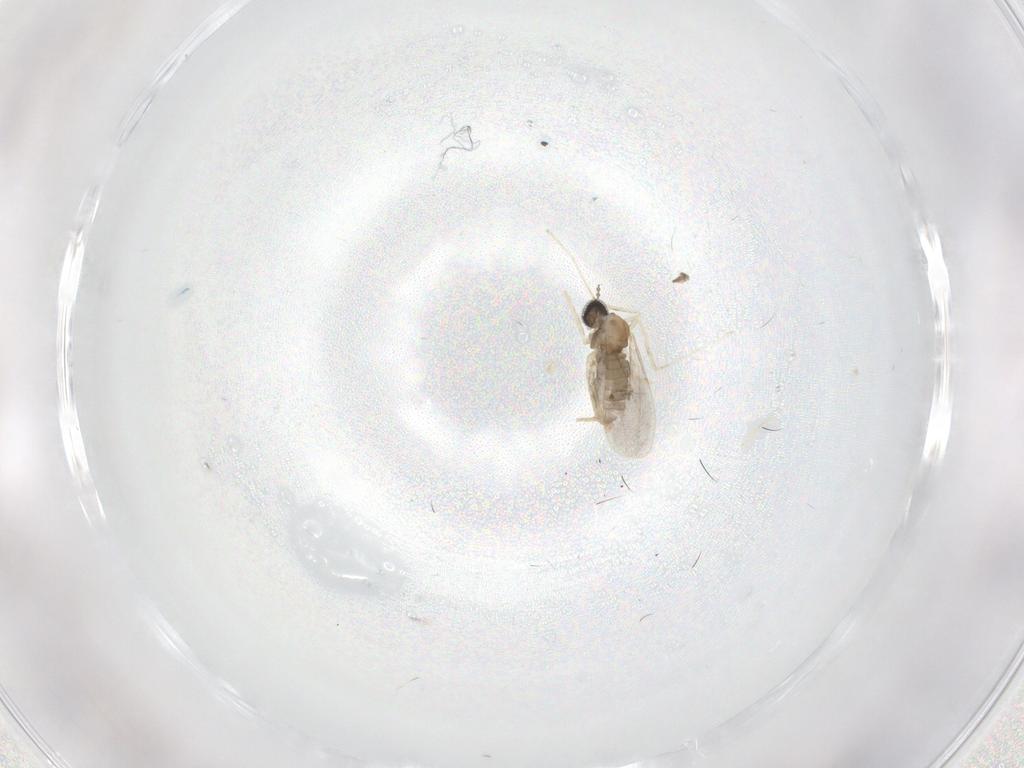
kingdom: Animalia
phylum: Arthropoda
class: Insecta
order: Diptera
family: Cecidomyiidae
